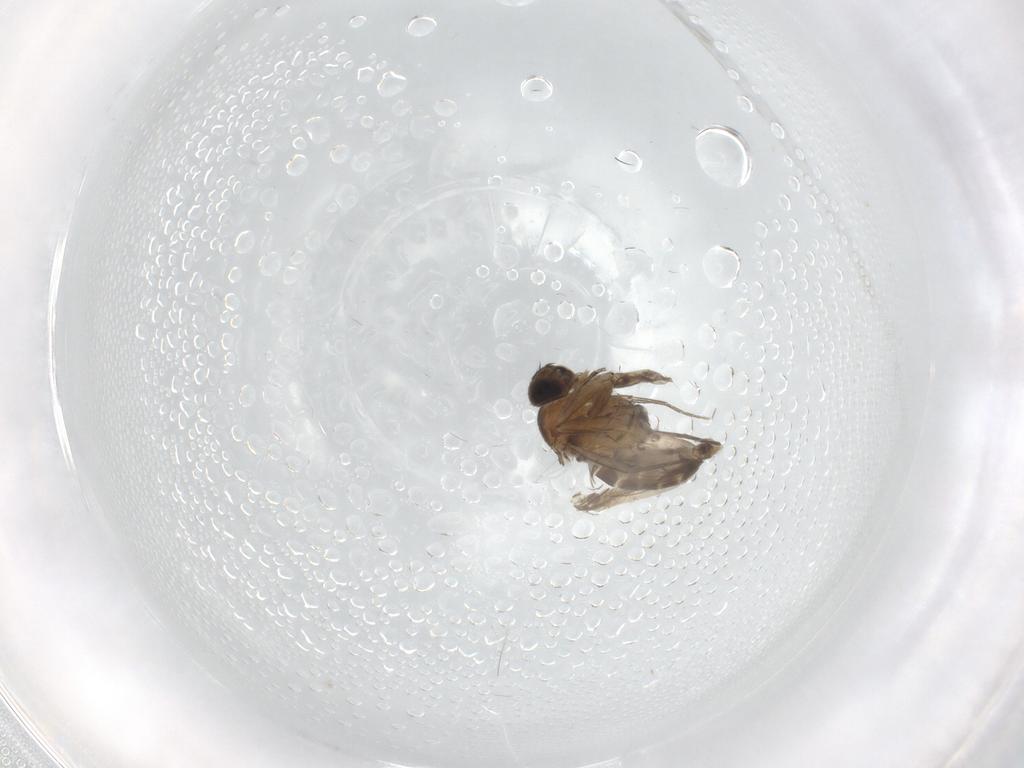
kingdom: Animalia
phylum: Arthropoda
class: Insecta
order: Diptera
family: Phoridae
